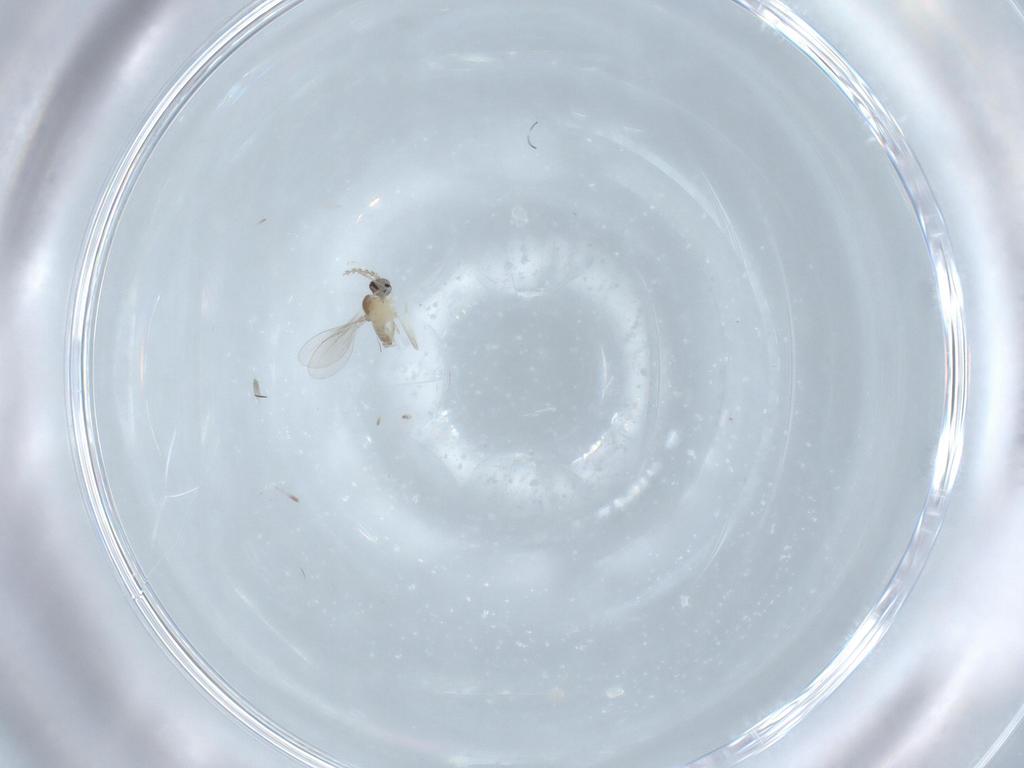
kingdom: Animalia
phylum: Arthropoda
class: Insecta
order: Diptera
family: Cecidomyiidae
